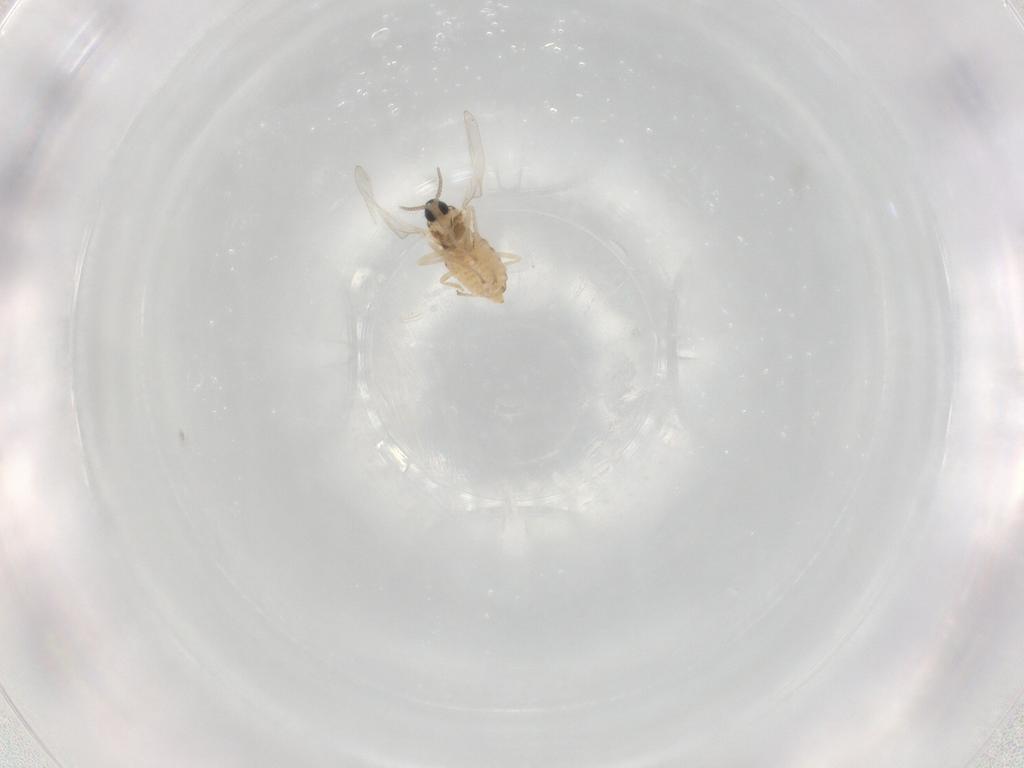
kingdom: Animalia
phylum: Arthropoda
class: Insecta
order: Diptera
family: Cecidomyiidae
